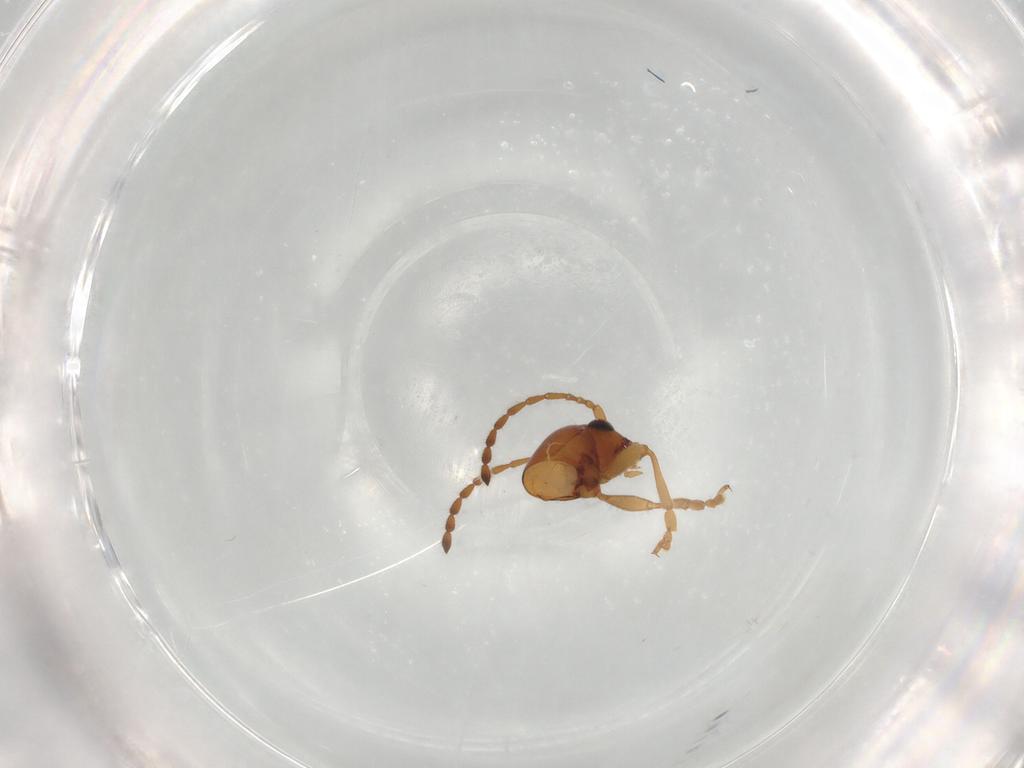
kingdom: Animalia
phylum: Arthropoda
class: Insecta
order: Coleoptera
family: Chrysomelidae
